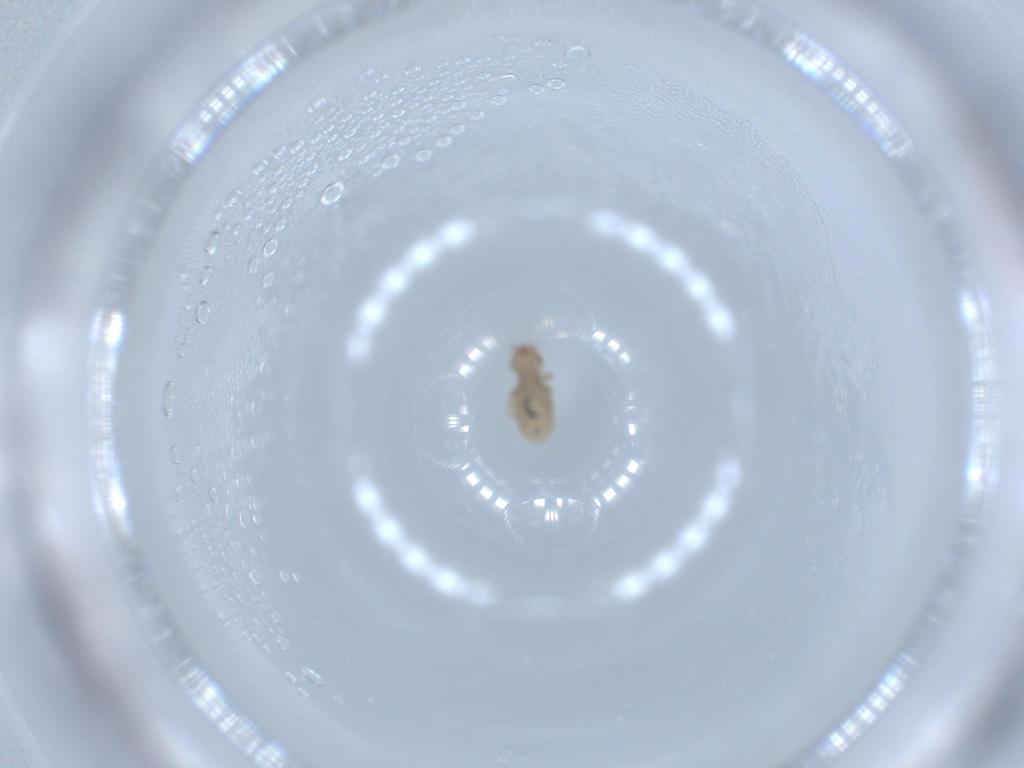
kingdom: Animalia
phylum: Arthropoda
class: Insecta
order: Psocodea
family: Liposcelididae
